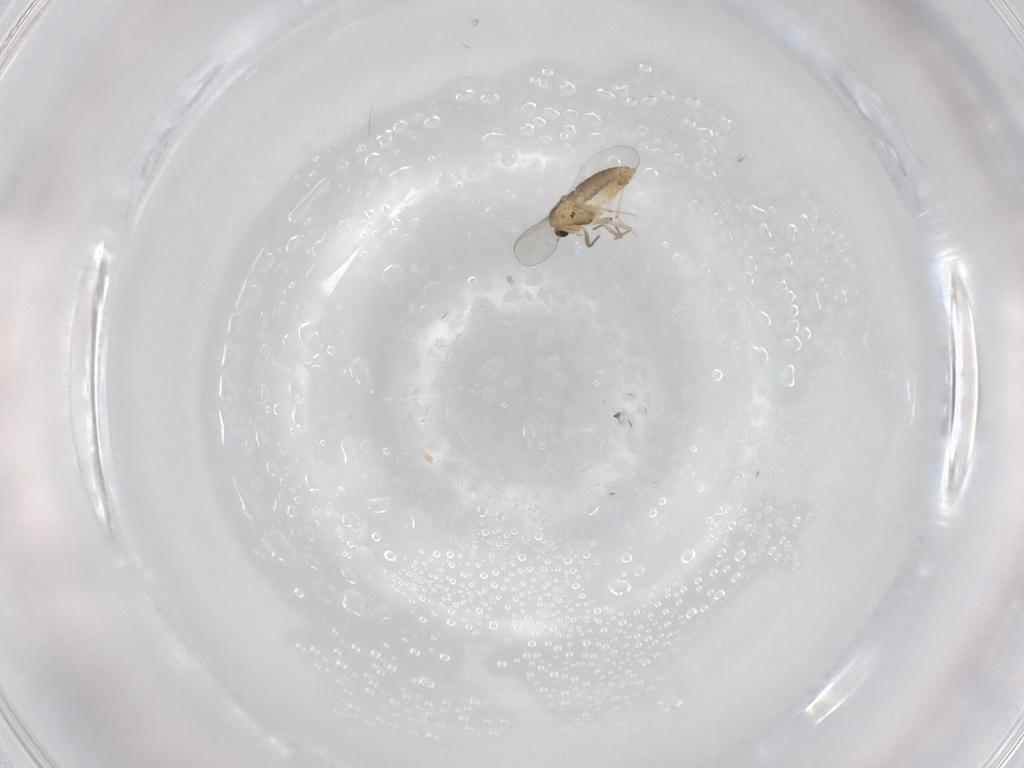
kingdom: Animalia
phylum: Arthropoda
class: Insecta
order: Diptera
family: Chironomidae
